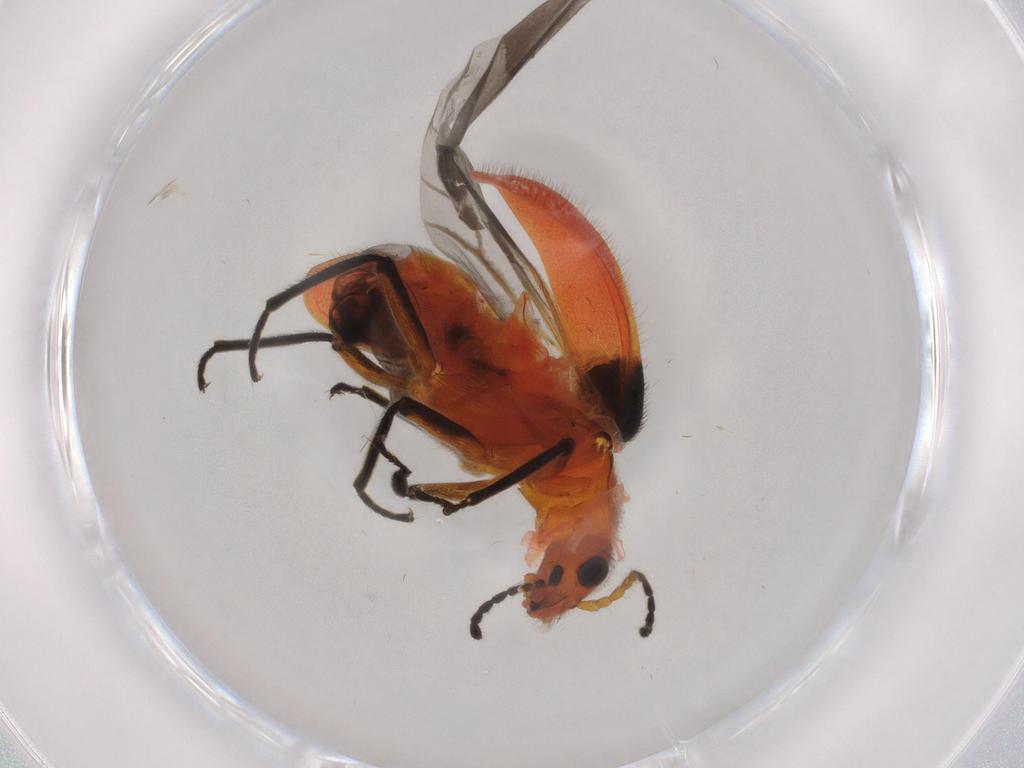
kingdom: Animalia
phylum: Arthropoda
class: Insecta
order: Coleoptera
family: Melyridae
